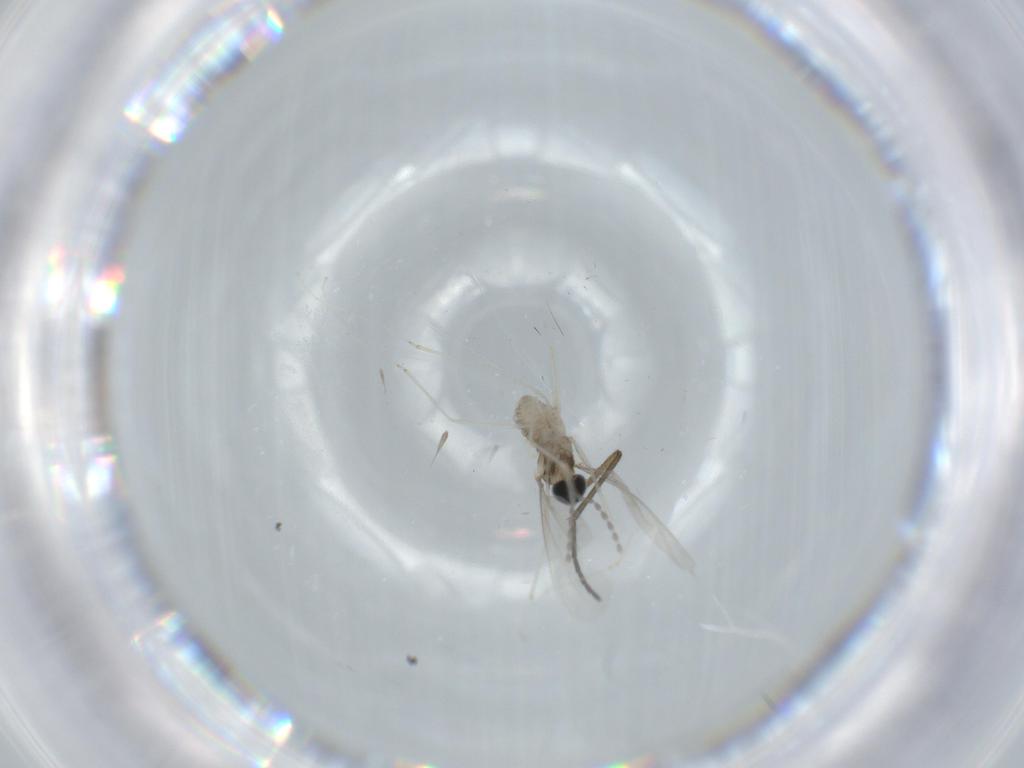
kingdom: Animalia
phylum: Arthropoda
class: Insecta
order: Diptera
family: Cecidomyiidae
